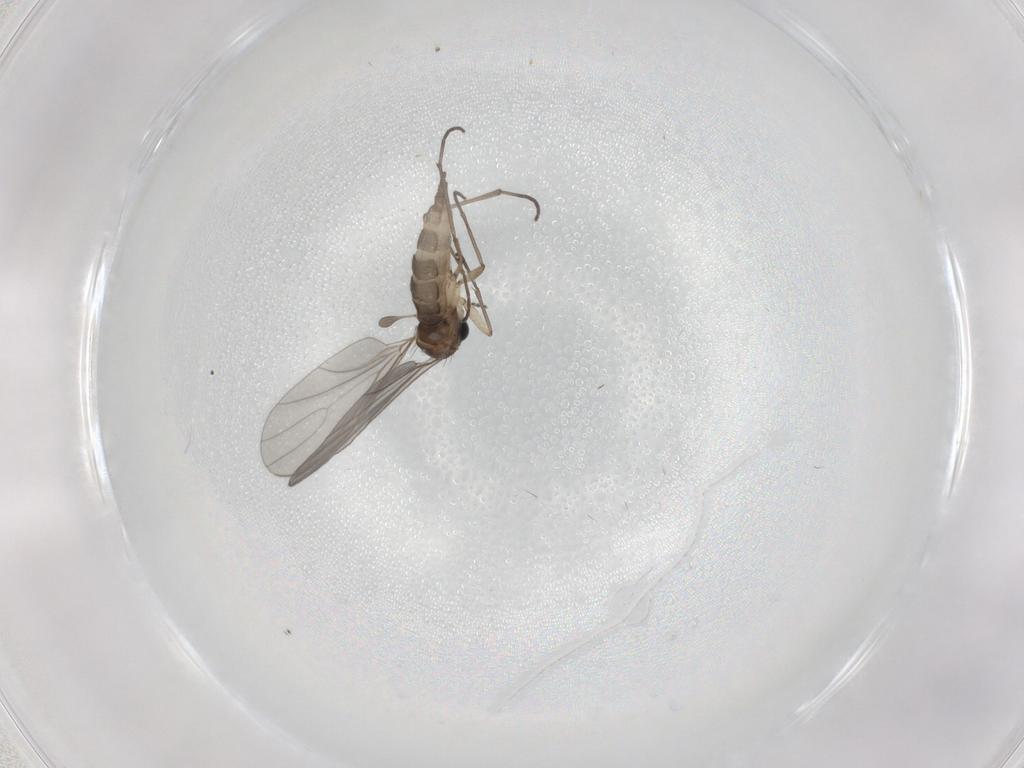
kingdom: Animalia
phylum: Arthropoda
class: Insecta
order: Diptera
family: Sciaridae
